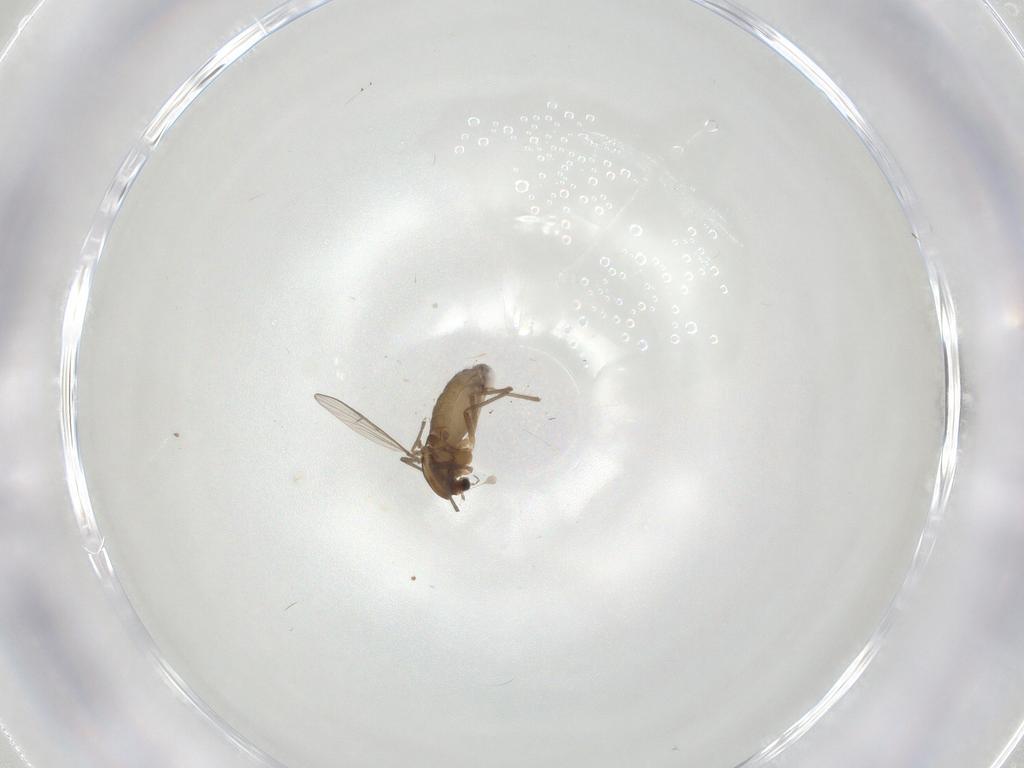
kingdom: Animalia
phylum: Arthropoda
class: Insecta
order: Diptera
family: Chironomidae
